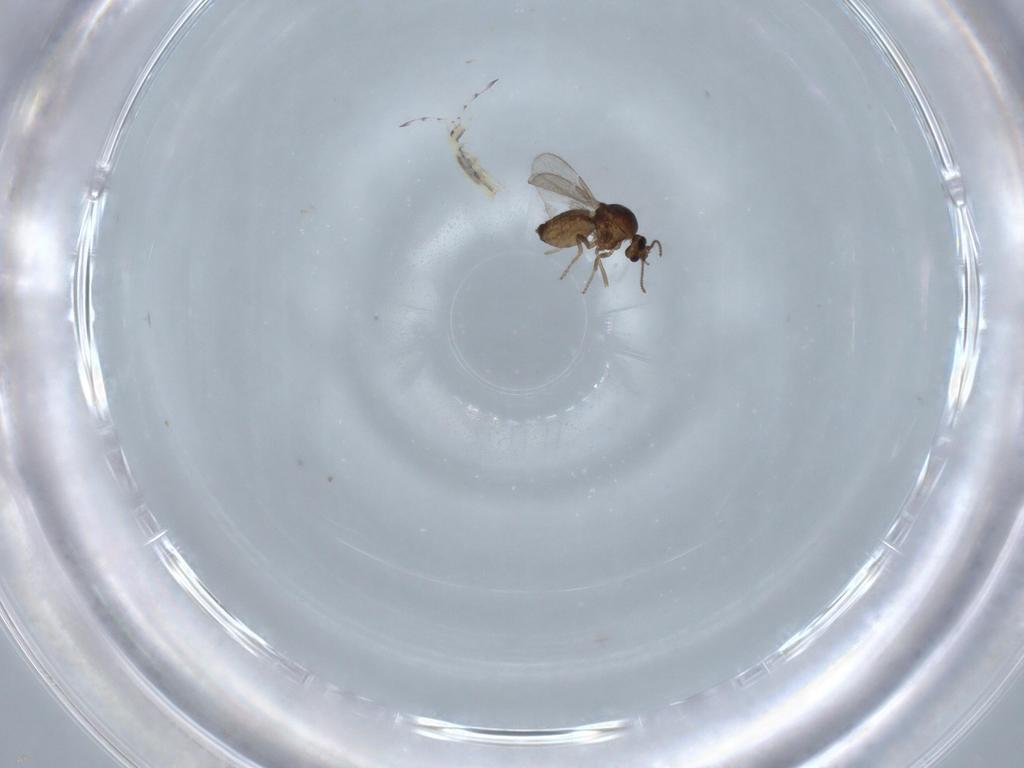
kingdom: Animalia
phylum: Arthropoda
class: Insecta
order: Diptera
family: Ceratopogonidae
